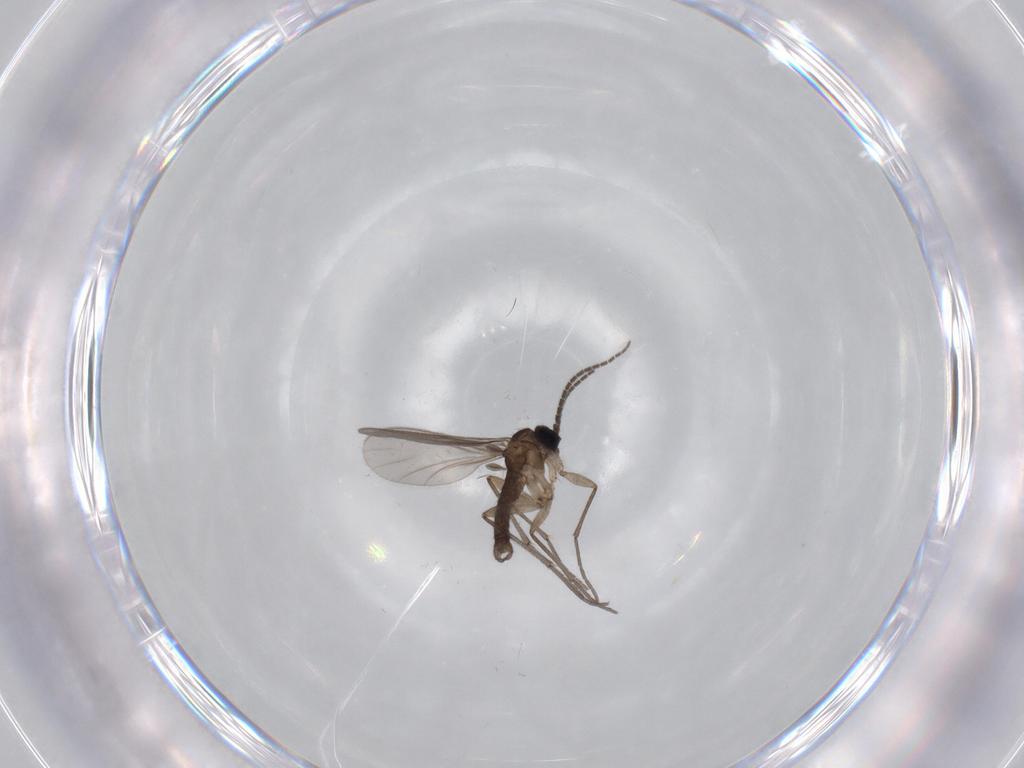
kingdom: Animalia
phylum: Arthropoda
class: Insecta
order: Diptera
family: Sciaridae
